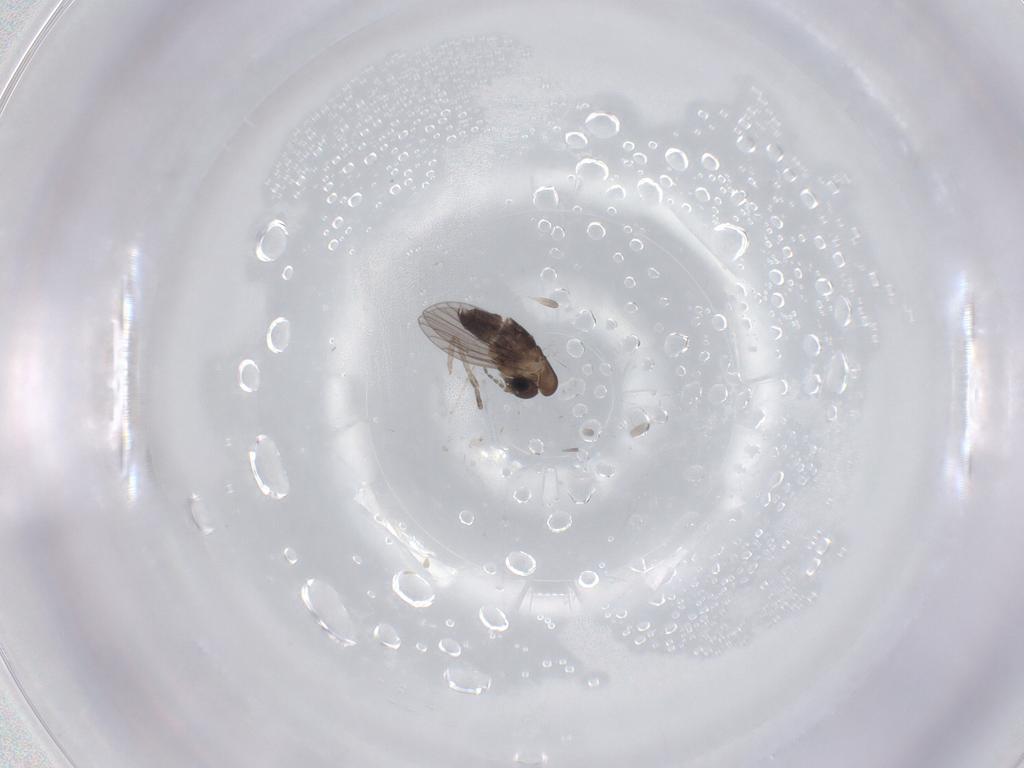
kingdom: Animalia
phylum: Arthropoda
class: Insecta
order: Diptera
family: Psychodidae
